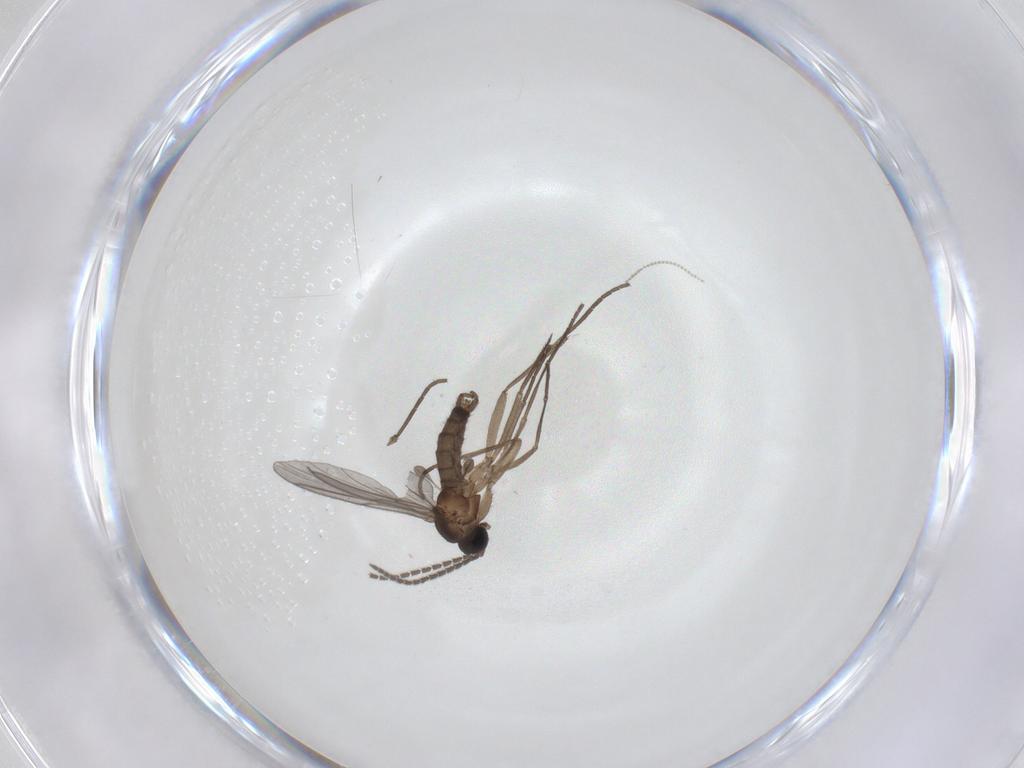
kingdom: Animalia
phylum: Arthropoda
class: Insecta
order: Diptera
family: Sciaridae
